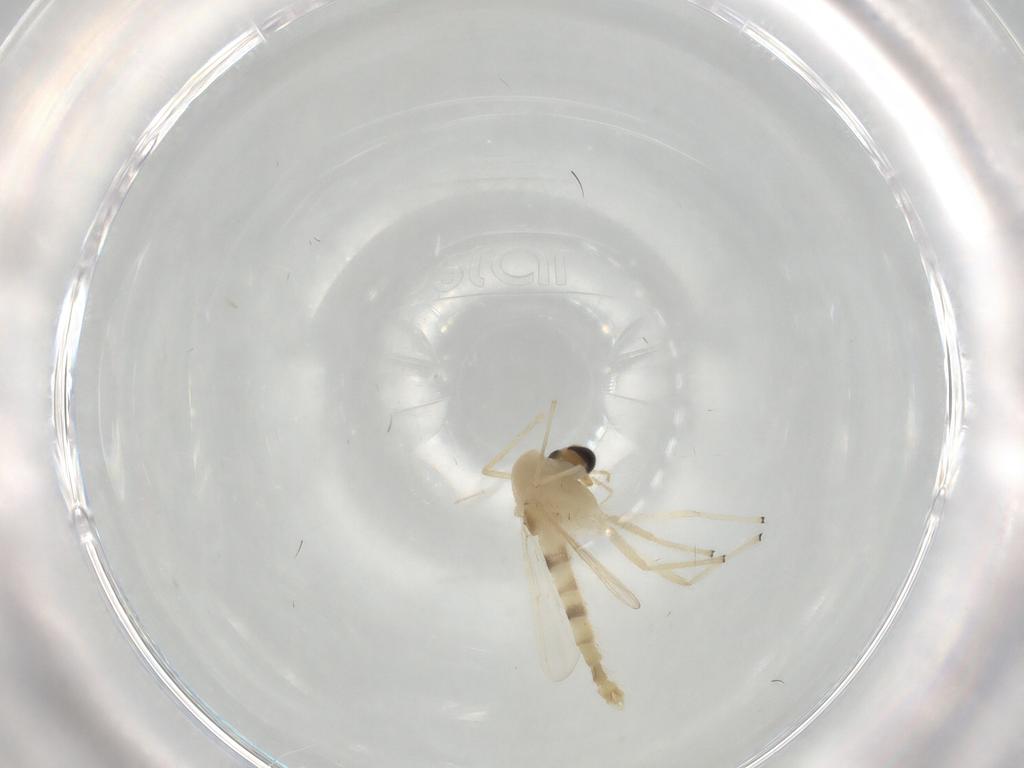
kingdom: Animalia
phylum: Arthropoda
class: Insecta
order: Diptera
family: Chironomidae
